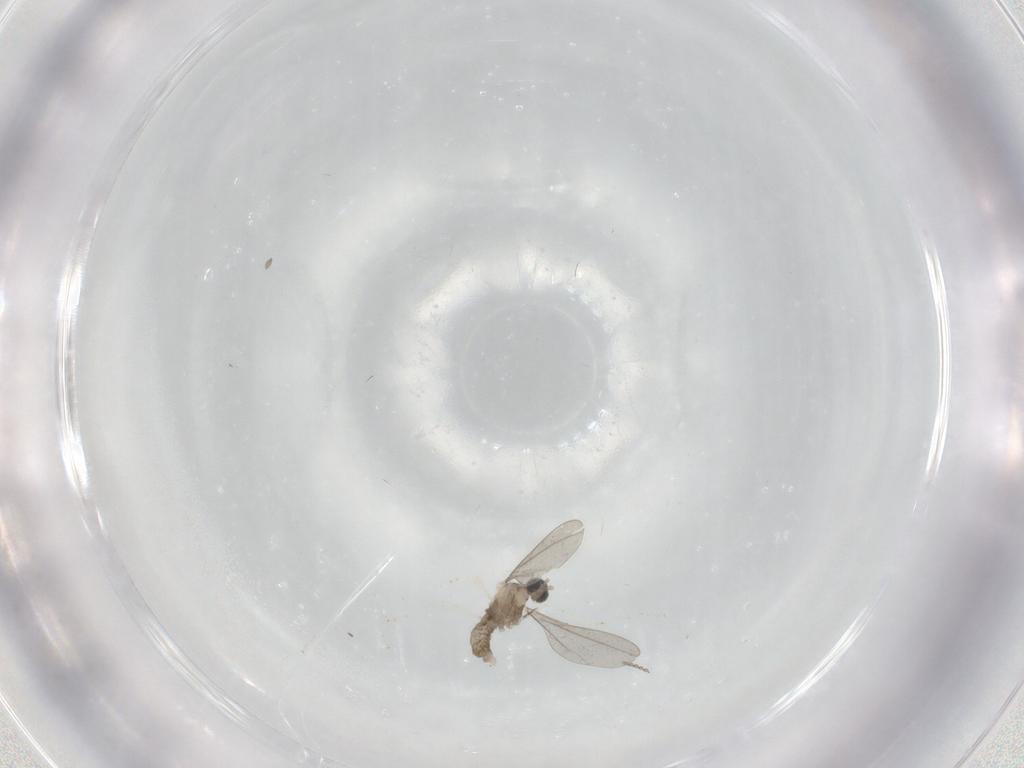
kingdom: Animalia
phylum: Arthropoda
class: Insecta
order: Diptera
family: Cecidomyiidae
